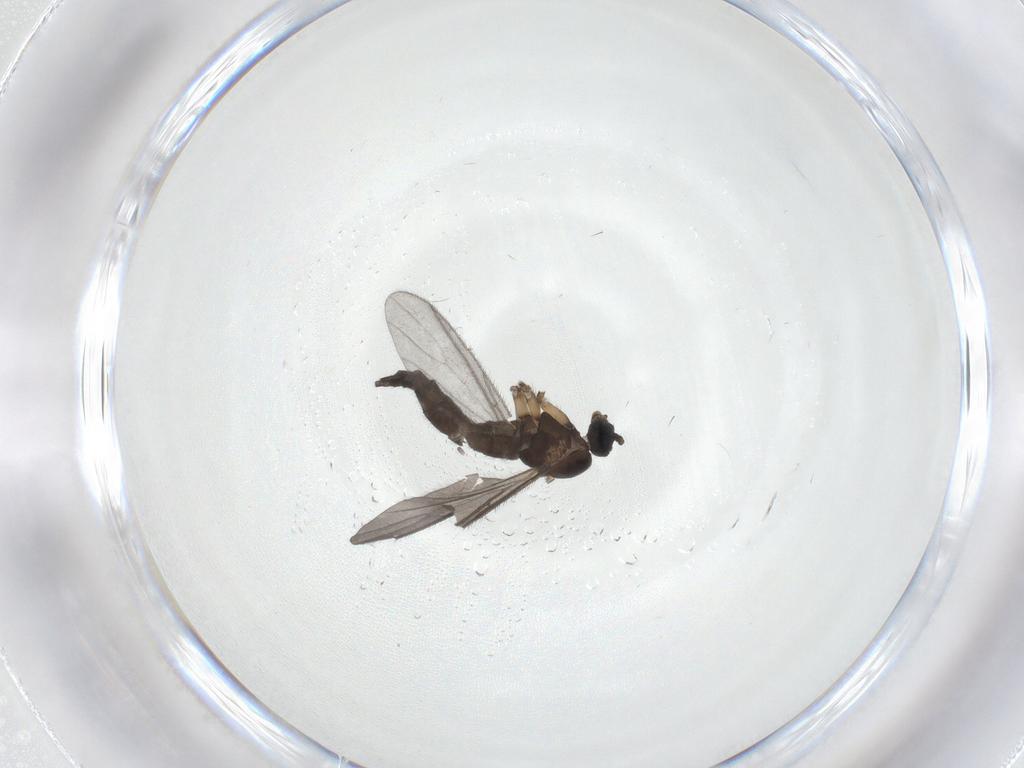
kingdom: Animalia
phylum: Arthropoda
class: Insecta
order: Diptera
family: Sciaridae
